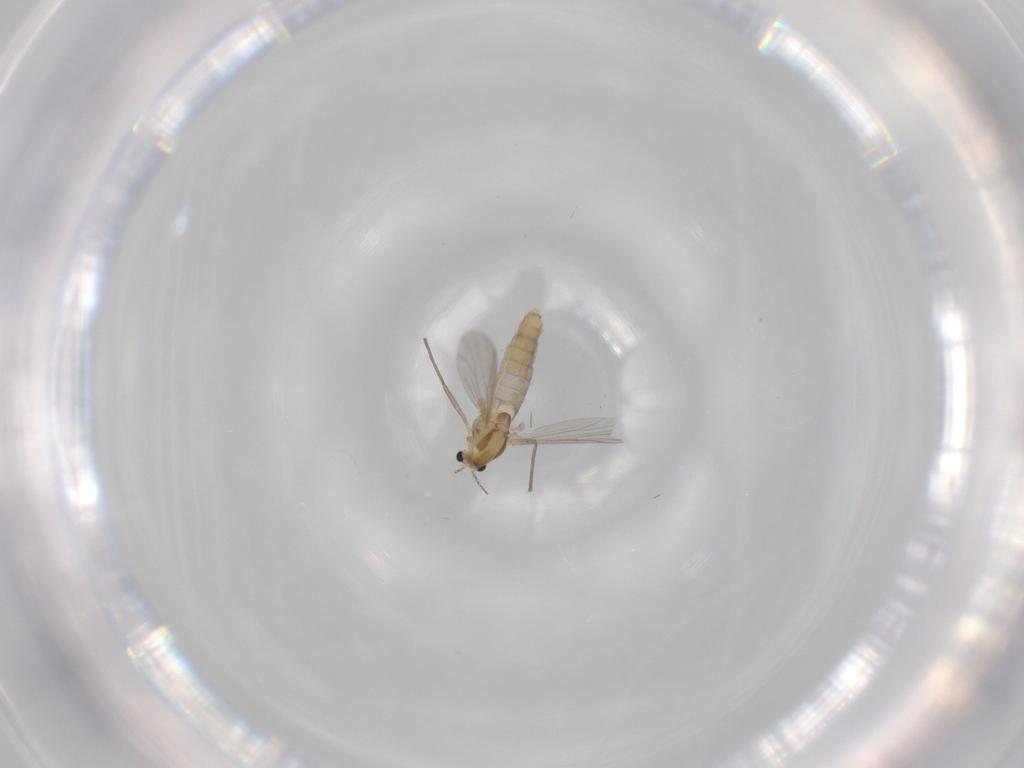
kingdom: Animalia
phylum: Arthropoda
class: Insecta
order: Diptera
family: Chironomidae
